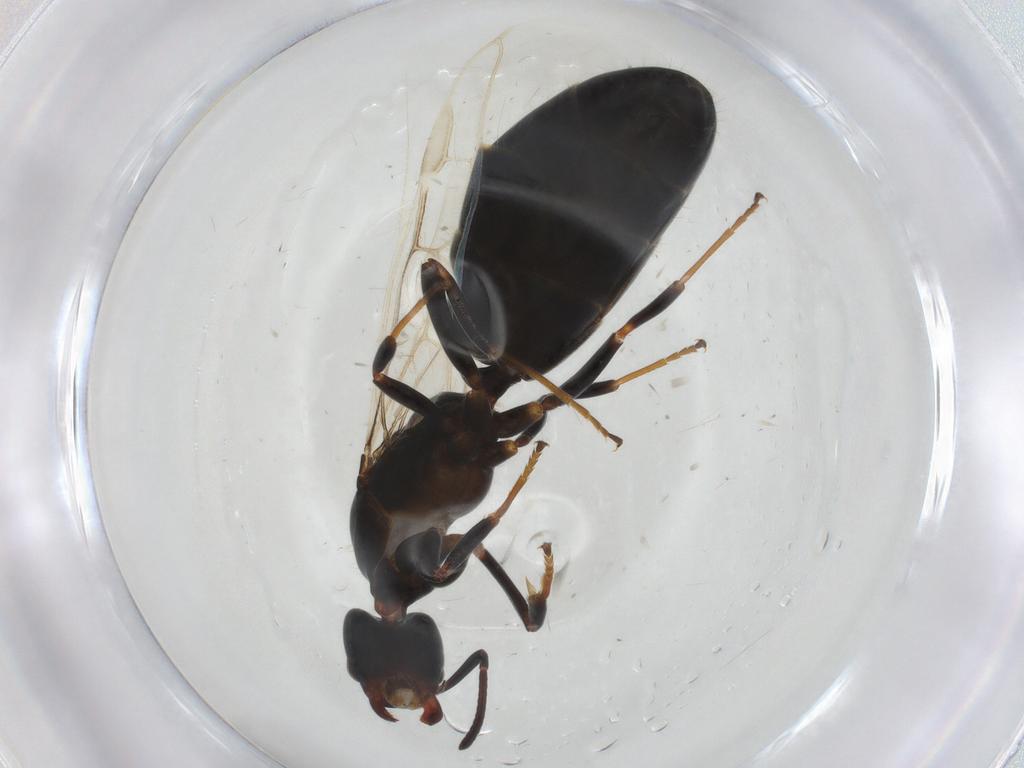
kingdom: Animalia
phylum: Arthropoda
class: Insecta
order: Hymenoptera
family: Formicidae
